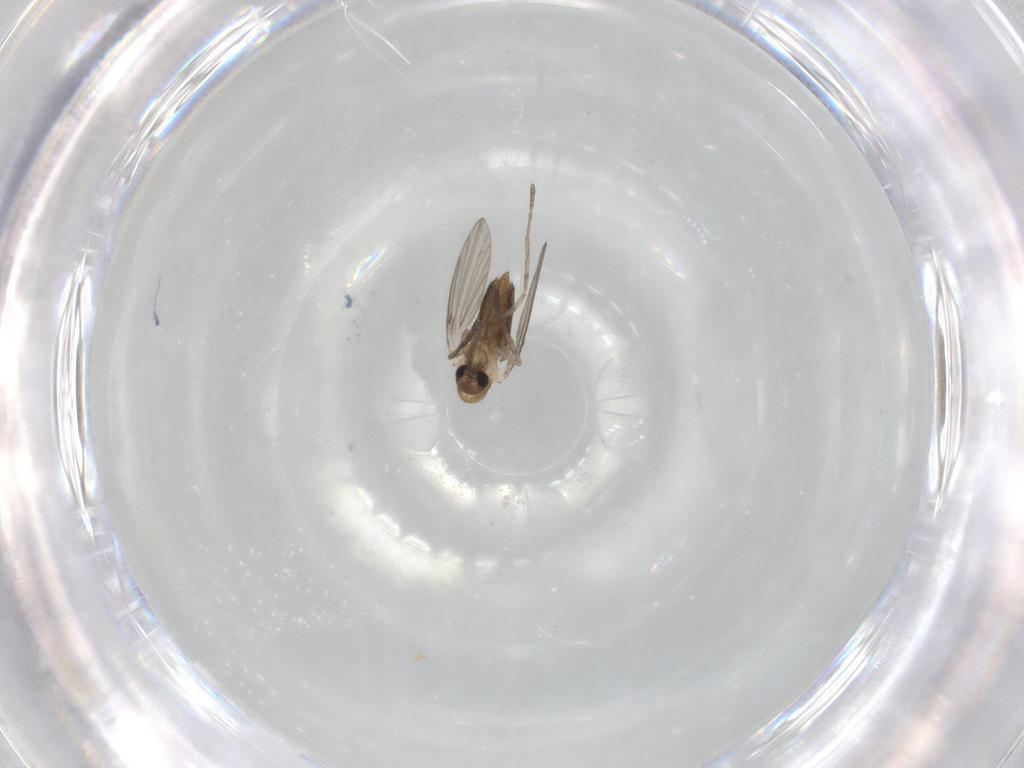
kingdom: Animalia
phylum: Arthropoda
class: Insecta
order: Diptera
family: Psychodidae
